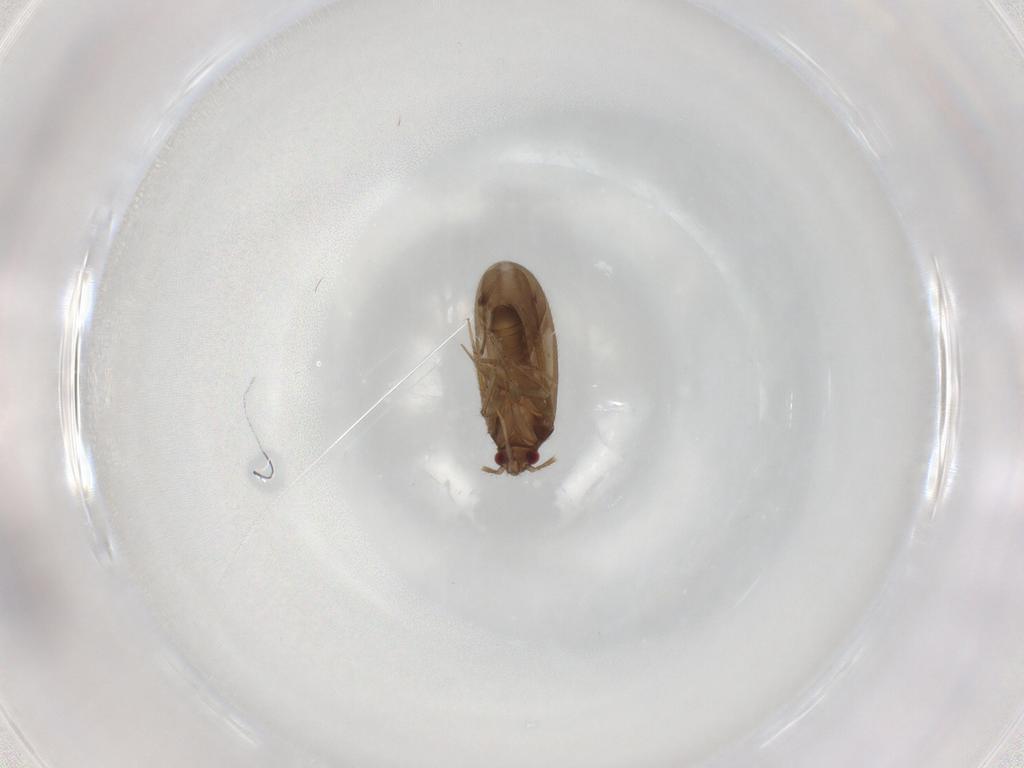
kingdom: Animalia
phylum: Arthropoda
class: Insecta
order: Hemiptera
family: Ceratocombidae
